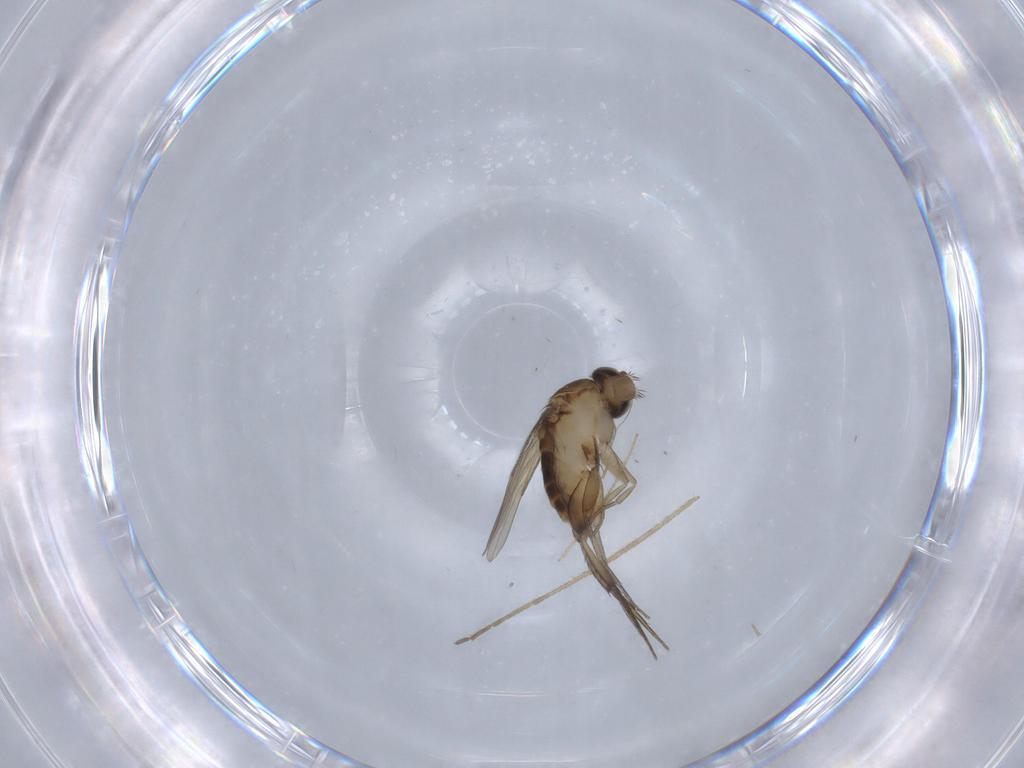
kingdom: Animalia
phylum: Arthropoda
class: Insecta
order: Diptera
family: Phoridae
